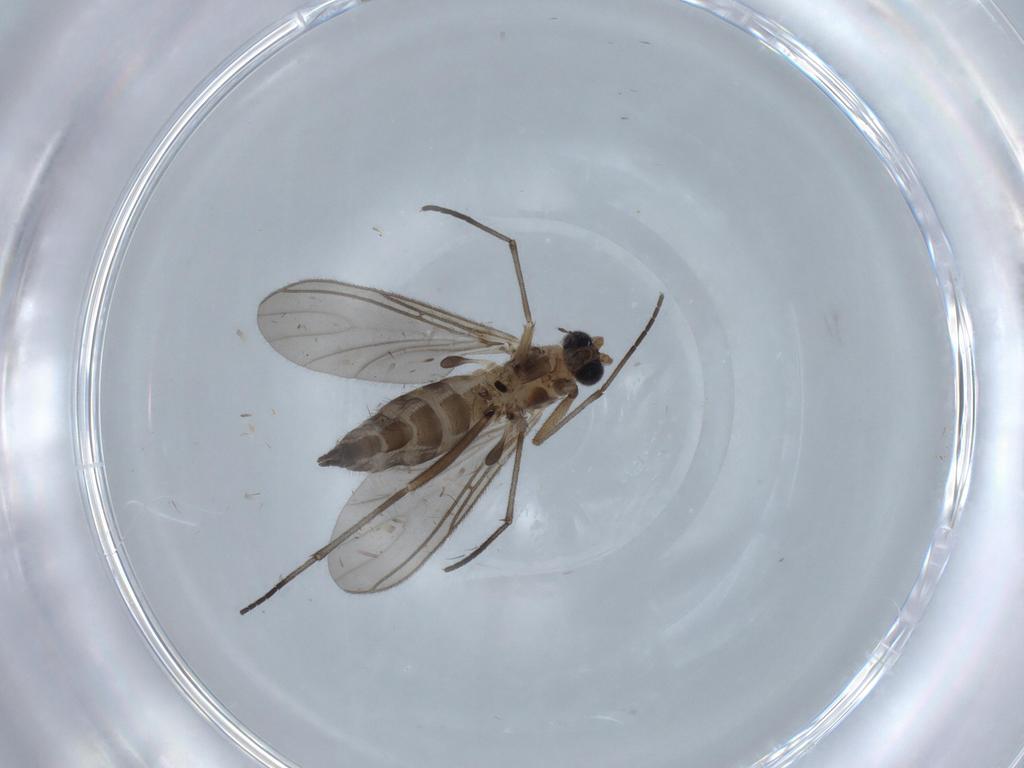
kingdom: Animalia
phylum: Arthropoda
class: Insecta
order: Diptera
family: Sciaridae
